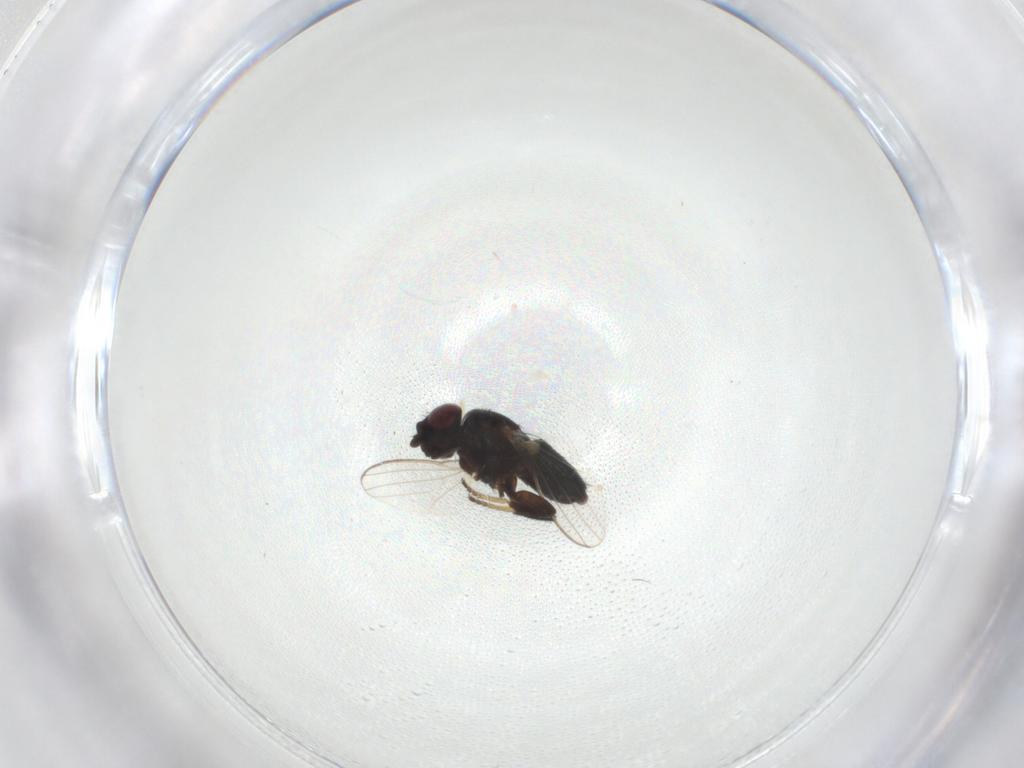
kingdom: Animalia
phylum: Arthropoda
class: Insecta
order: Diptera
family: Milichiidae
